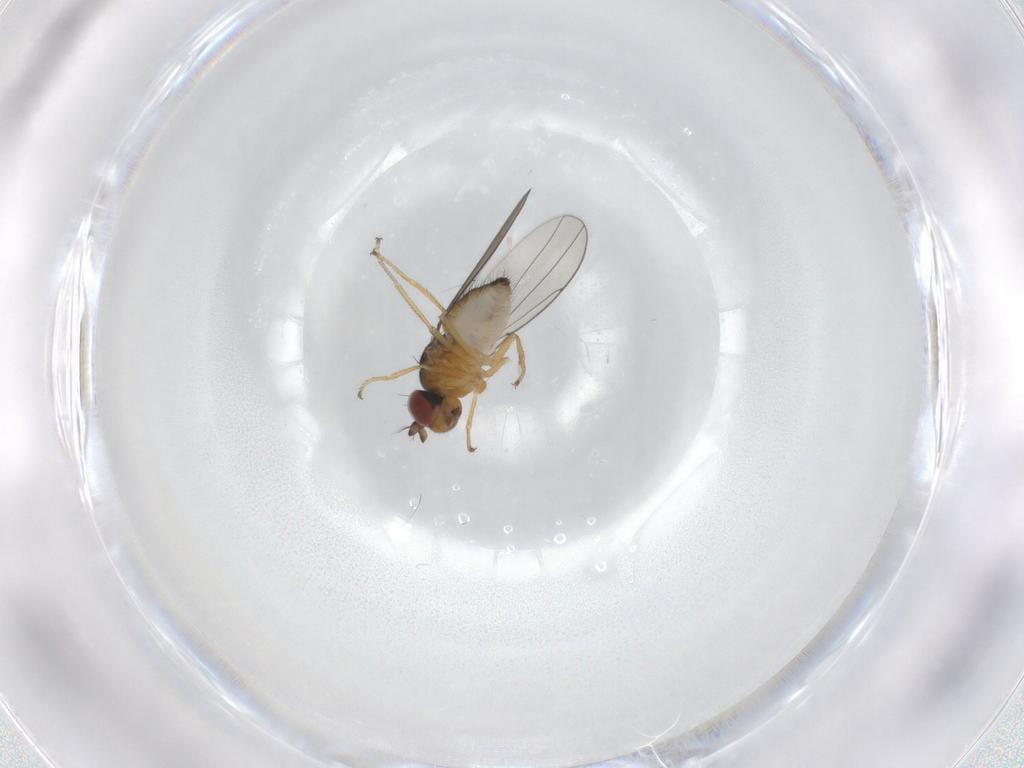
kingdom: Animalia
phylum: Arthropoda
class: Insecta
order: Diptera
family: Ephydridae
